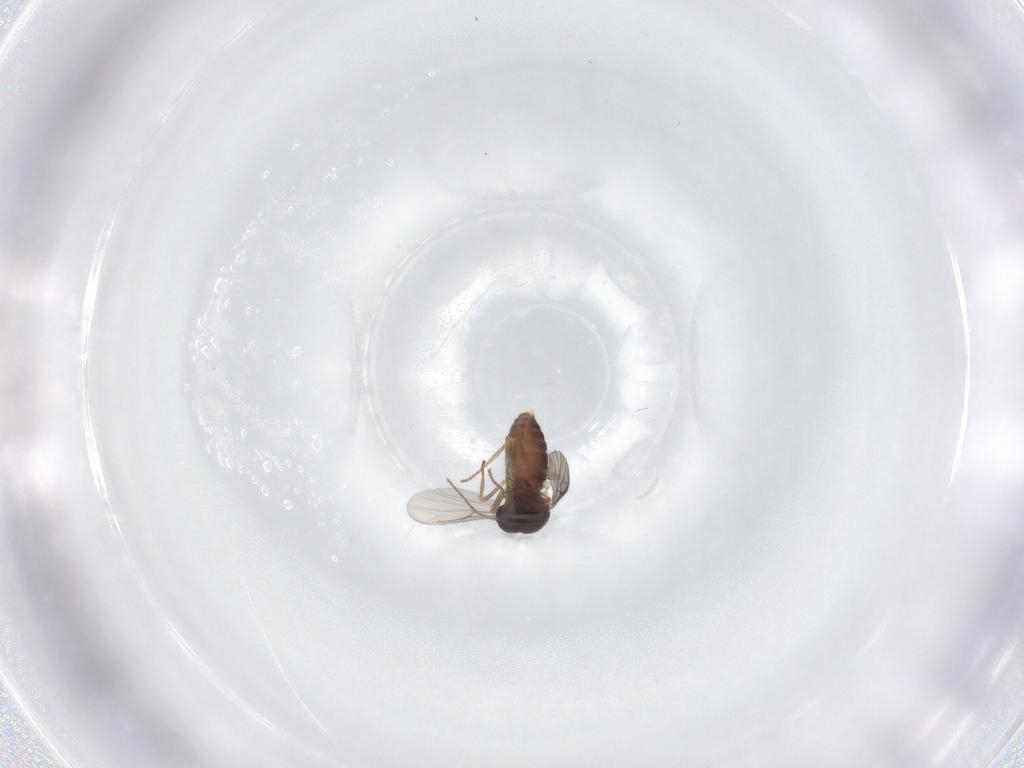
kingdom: Animalia
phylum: Arthropoda
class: Insecta
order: Diptera
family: Ceratopogonidae
